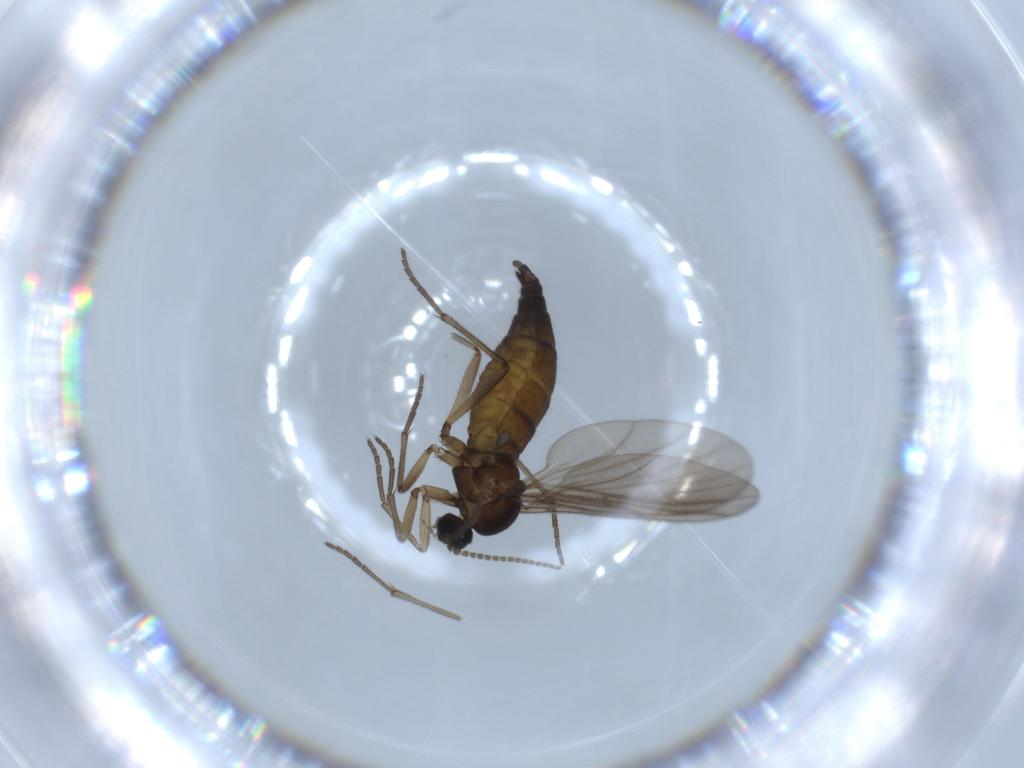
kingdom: Animalia
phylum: Arthropoda
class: Insecta
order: Diptera
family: Sciaridae
